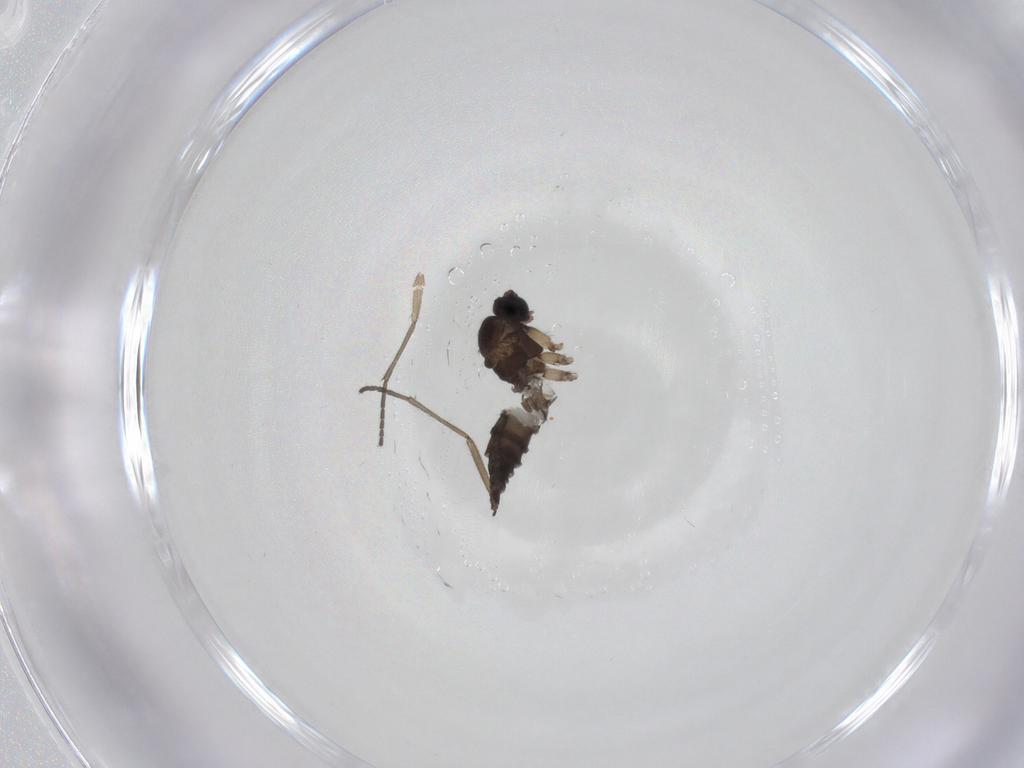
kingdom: Animalia
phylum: Arthropoda
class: Insecta
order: Diptera
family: Sciaridae
